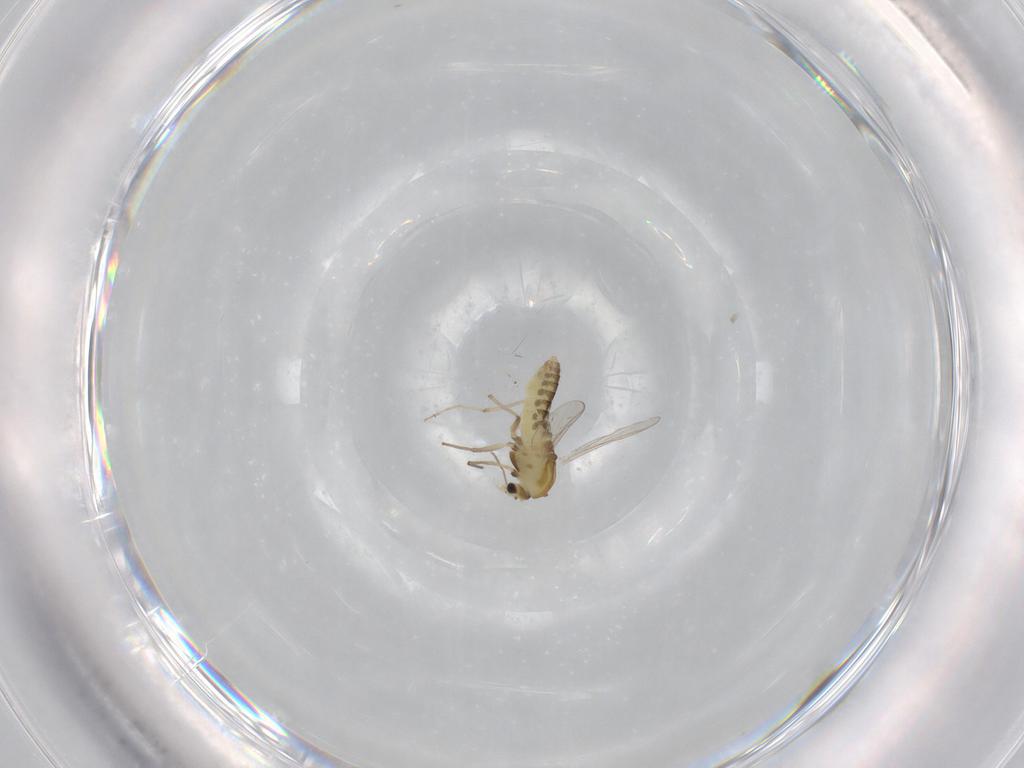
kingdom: Animalia
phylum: Arthropoda
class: Insecta
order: Diptera
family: Chironomidae
